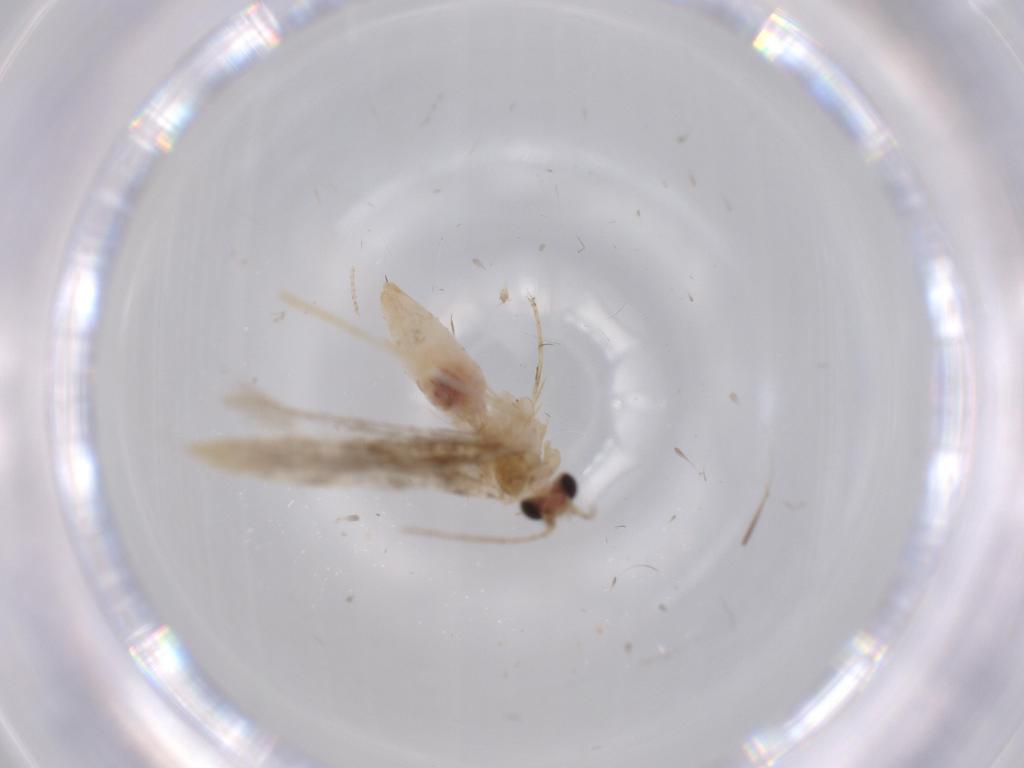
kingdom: Animalia
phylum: Arthropoda
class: Insecta
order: Lepidoptera
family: Tineidae
